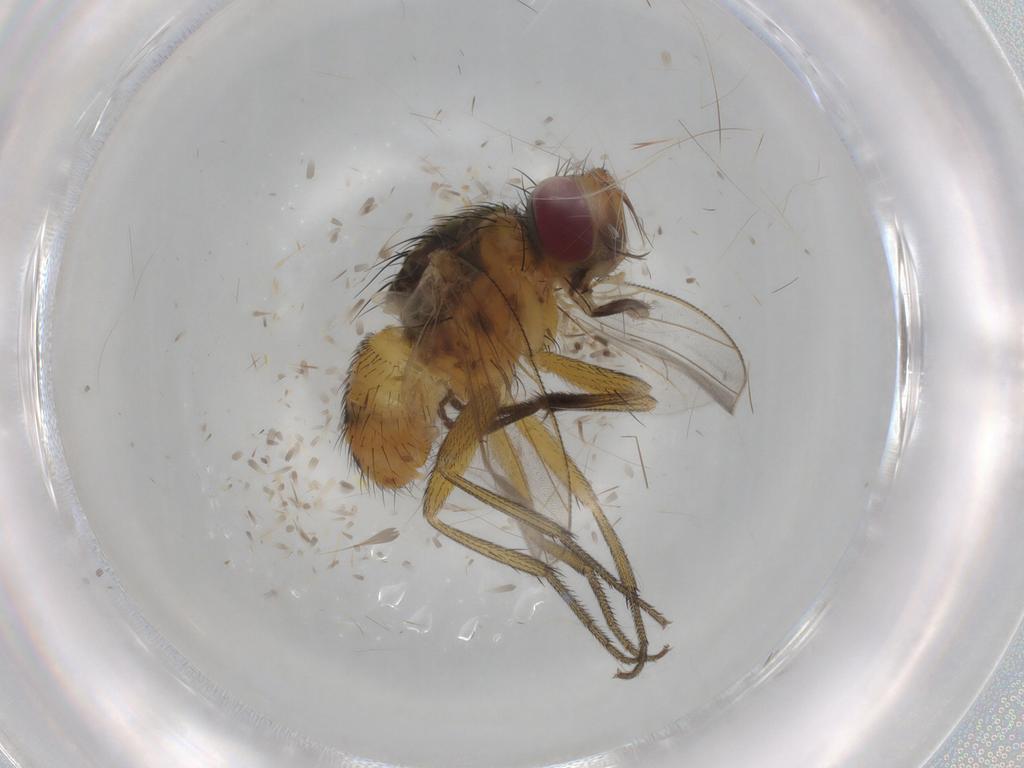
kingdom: Animalia
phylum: Arthropoda
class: Insecta
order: Diptera
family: Muscidae
